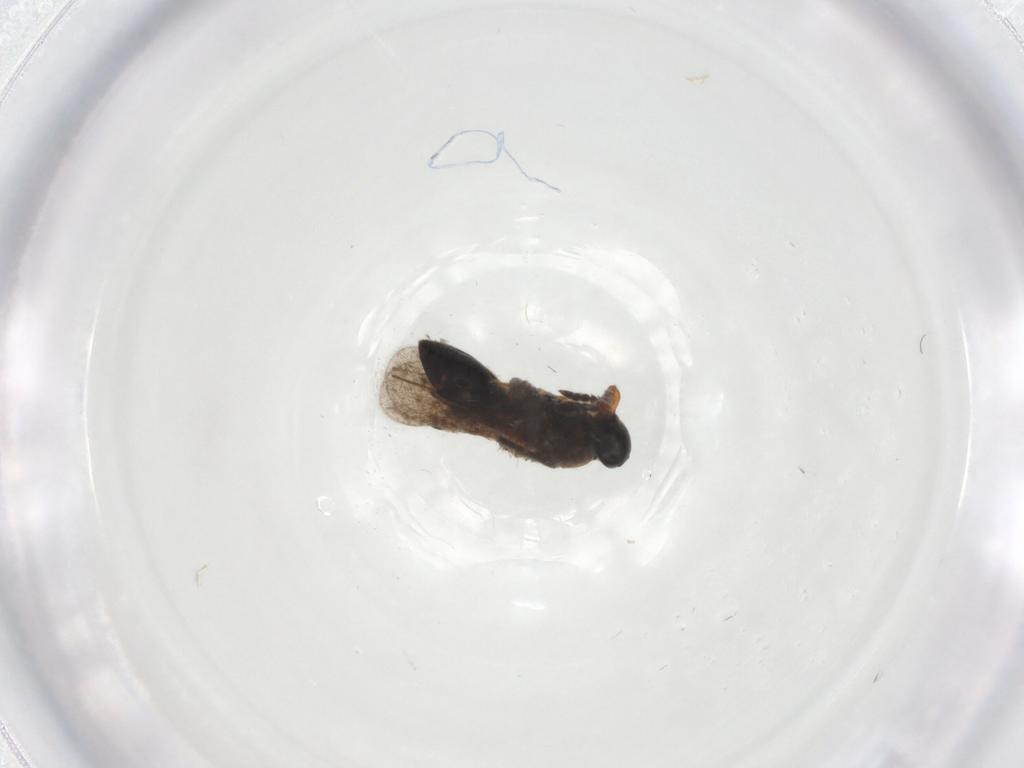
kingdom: Animalia
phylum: Arthropoda
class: Insecta
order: Hymenoptera
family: Platygastridae
